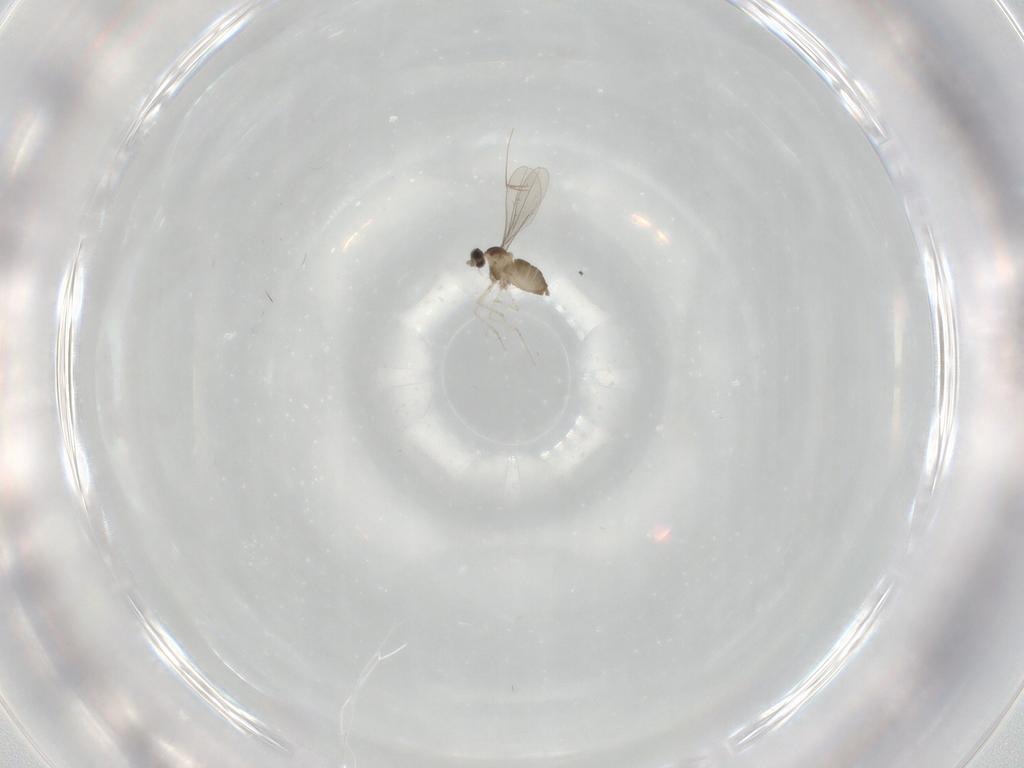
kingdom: Animalia
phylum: Arthropoda
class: Insecta
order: Diptera
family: Cecidomyiidae
